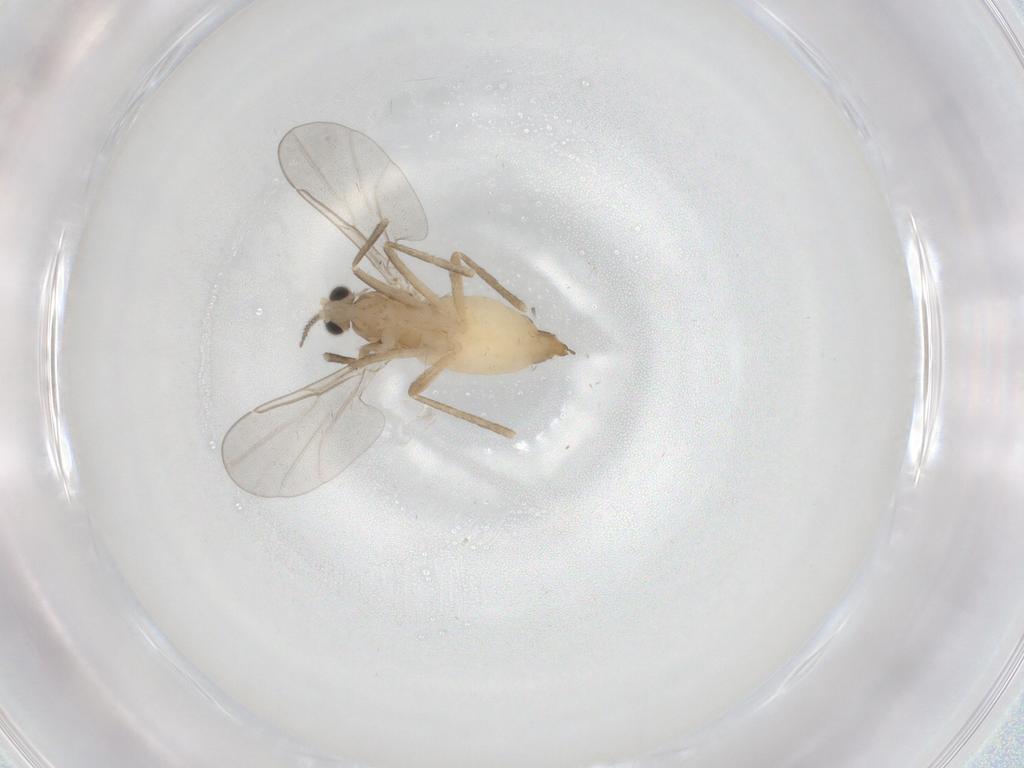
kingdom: Animalia
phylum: Arthropoda
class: Insecta
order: Diptera
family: Cecidomyiidae
